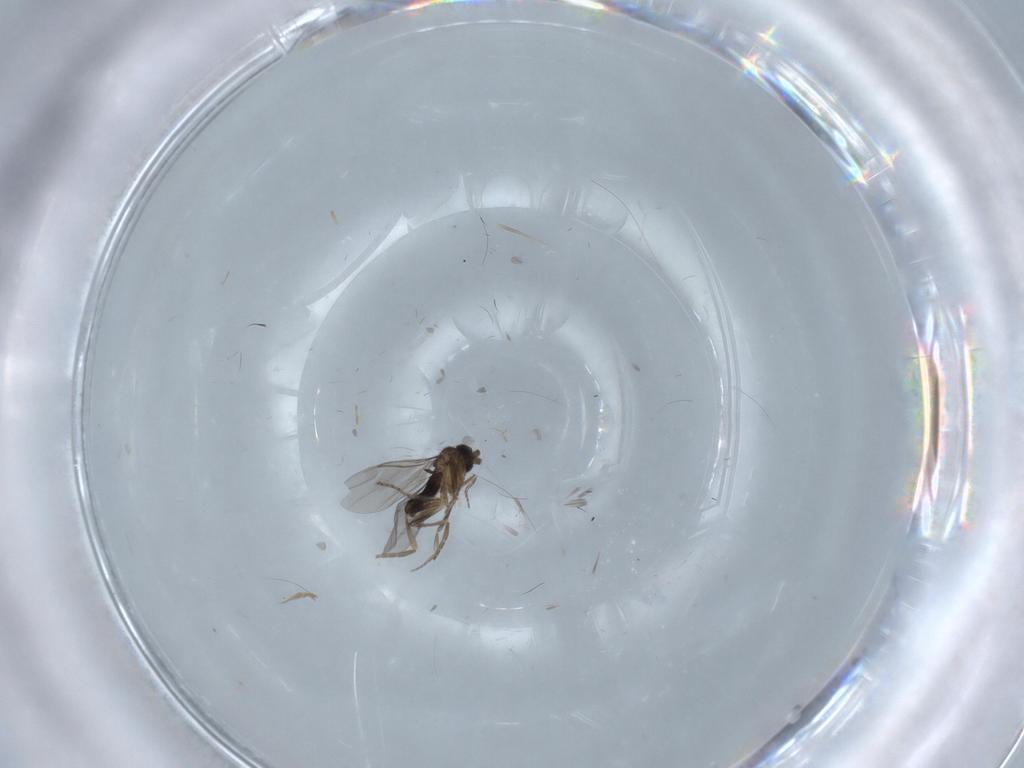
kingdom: Animalia
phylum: Arthropoda
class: Insecta
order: Diptera
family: Ceratopogonidae
